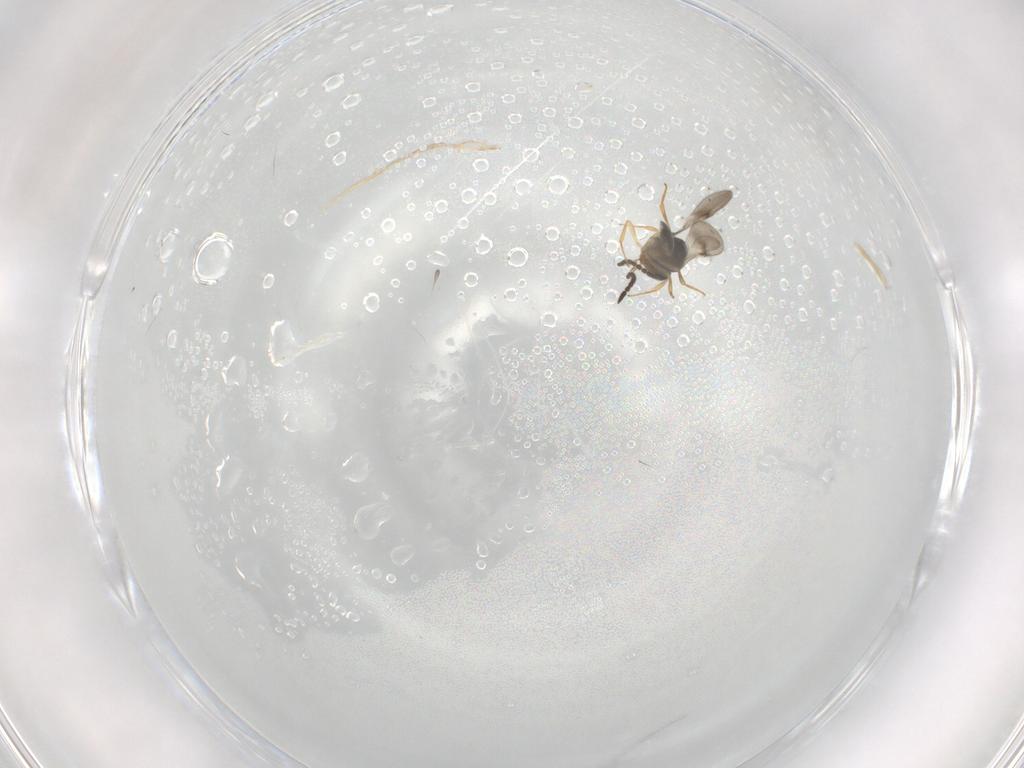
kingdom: Animalia
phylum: Arthropoda
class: Arachnida
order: Araneae
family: Pholcidae
